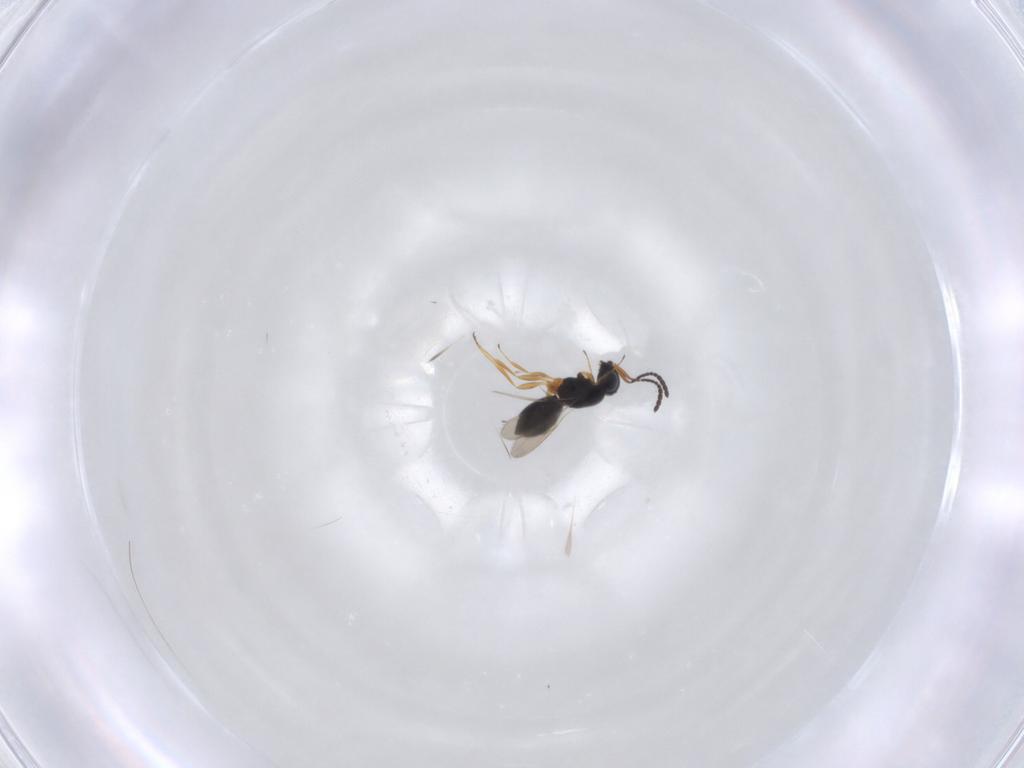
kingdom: Animalia
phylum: Arthropoda
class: Insecta
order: Hymenoptera
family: Scelionidae
